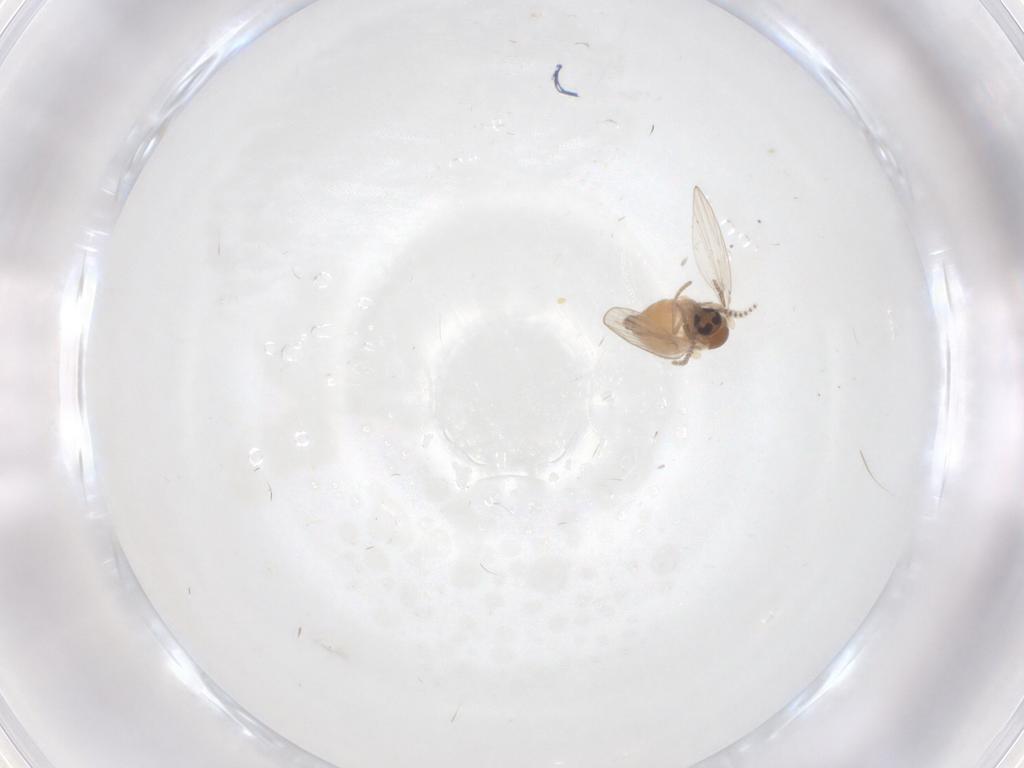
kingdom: Animalia
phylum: Arthropoda
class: Insecta
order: Diptera
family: Psychodidae
